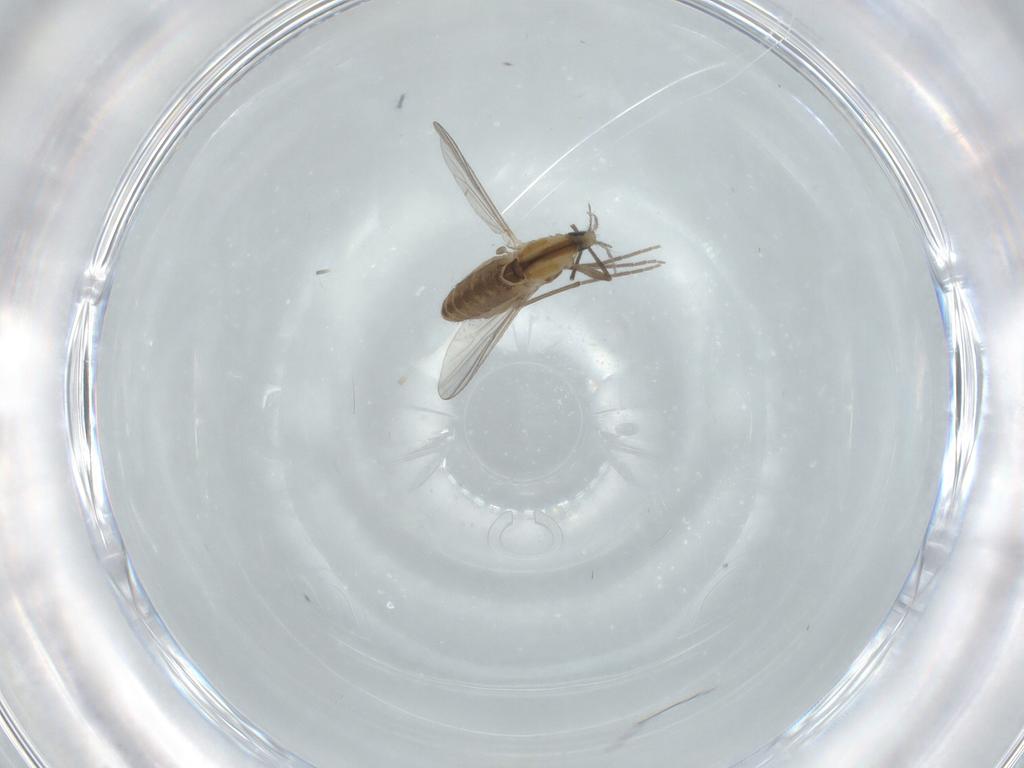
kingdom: Animalia
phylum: Arthropoda
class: Insecta
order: Diptera
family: Chironomidae
